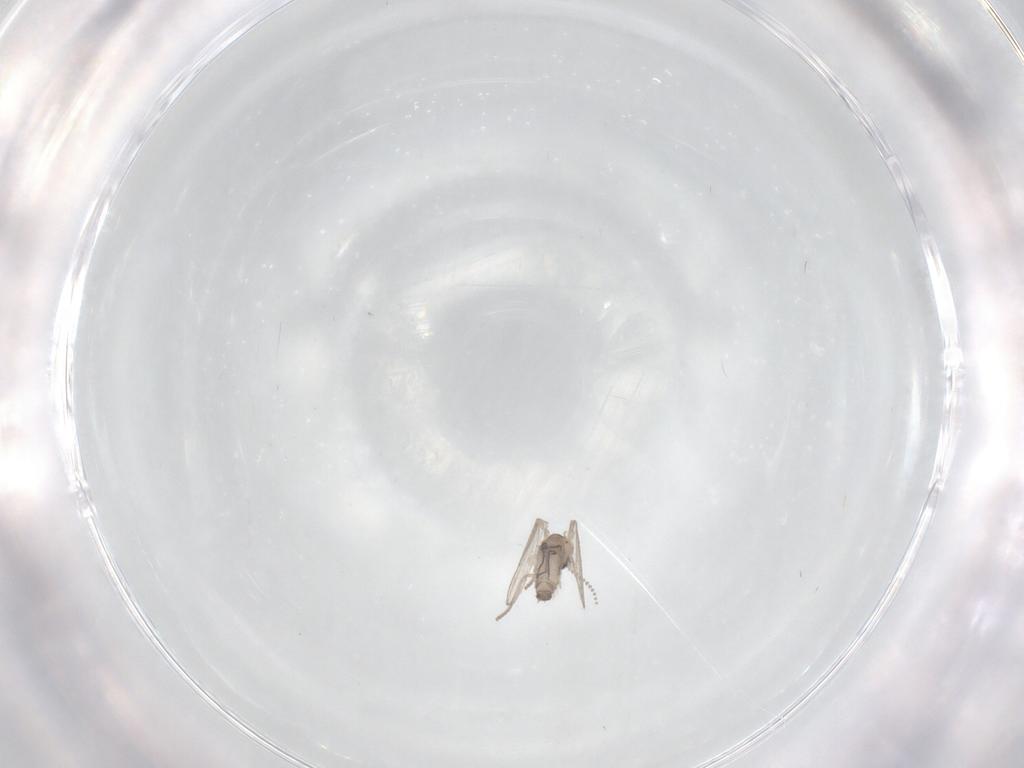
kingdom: Animalia
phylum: Arthropoda
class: Insecta
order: Diptera
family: Psychodidae
